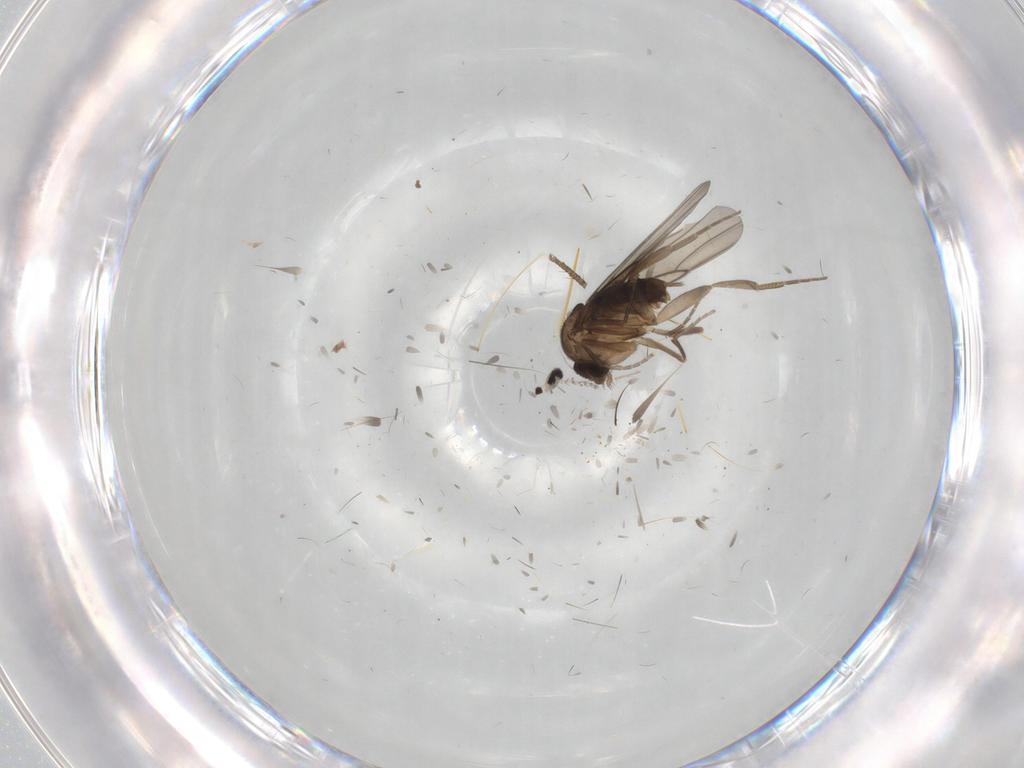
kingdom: Animalia
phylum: Arthropoda
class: Insecta
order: Diptera
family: Phoridae
